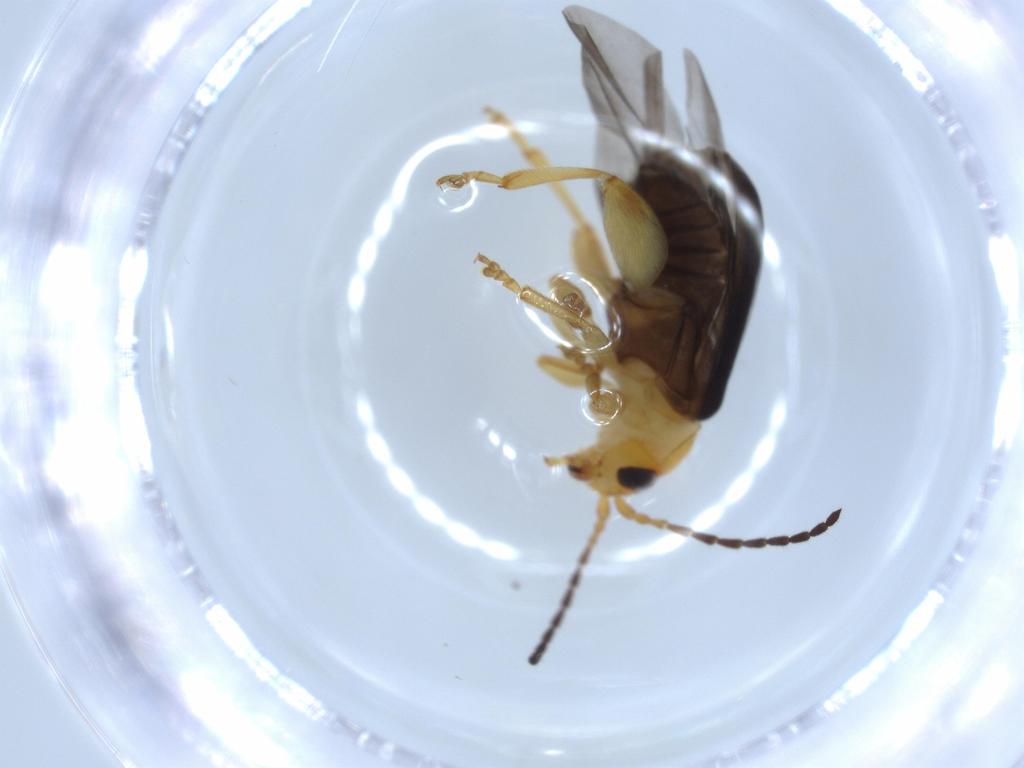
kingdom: Animalia
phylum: Arthropoda
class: Insecta
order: Coleoptera
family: Chrysomelidae
